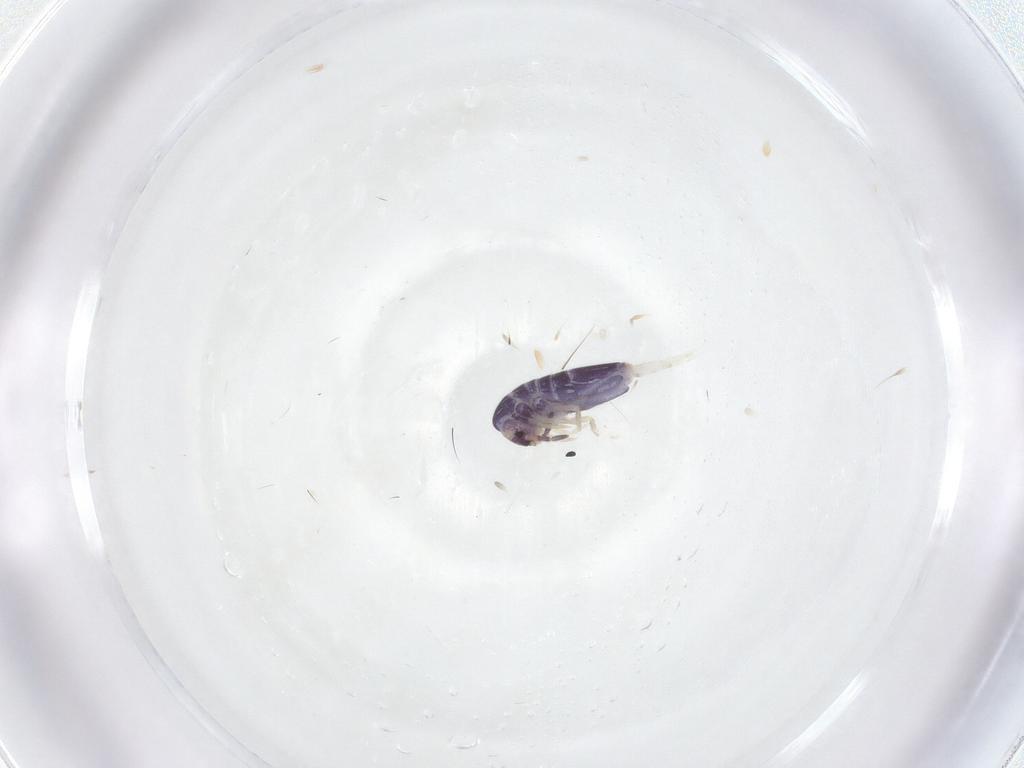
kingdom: Animalia
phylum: Arthropoda
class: Collembola
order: Entomobryomorpha
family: Entomobryidae
